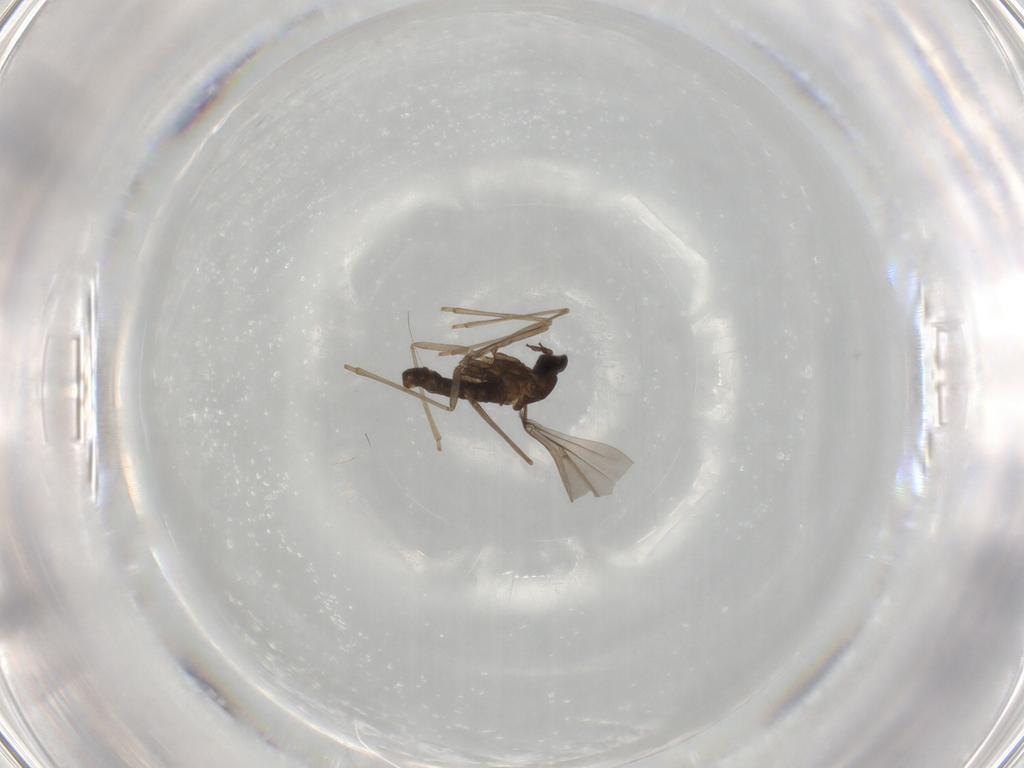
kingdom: Animalia
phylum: Arthropoda
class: Insecta
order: Diptera
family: Cecidomyiidae
